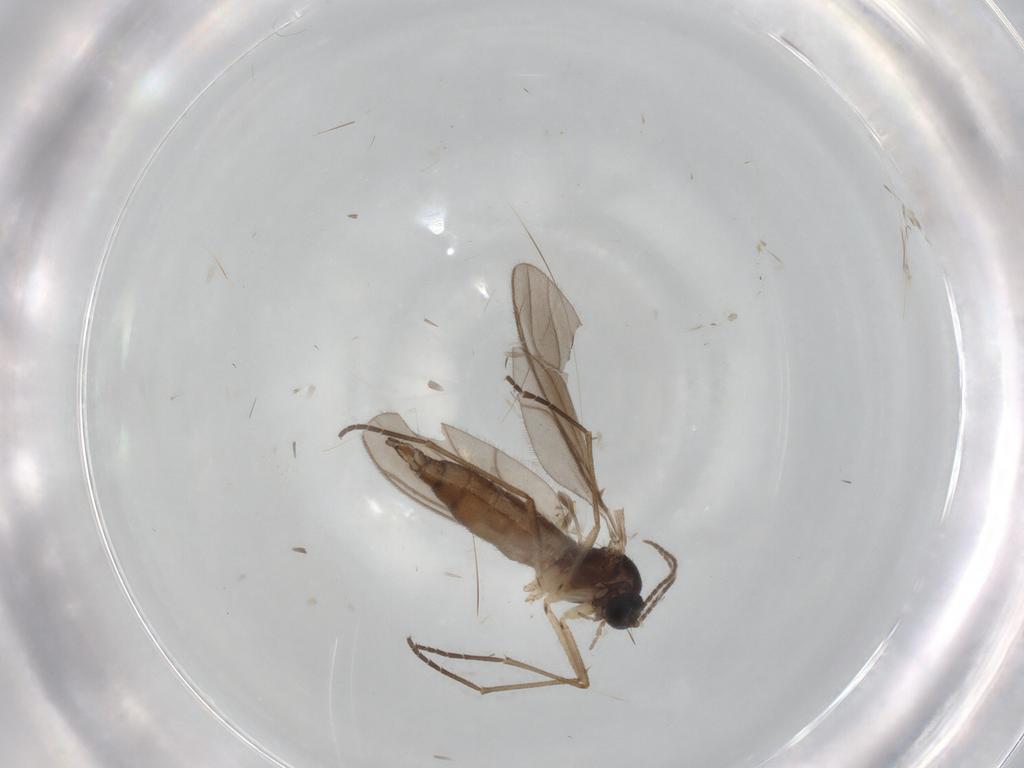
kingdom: Animalia
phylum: Arthropoda
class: Insecta
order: Diptera
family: Sciaridae
